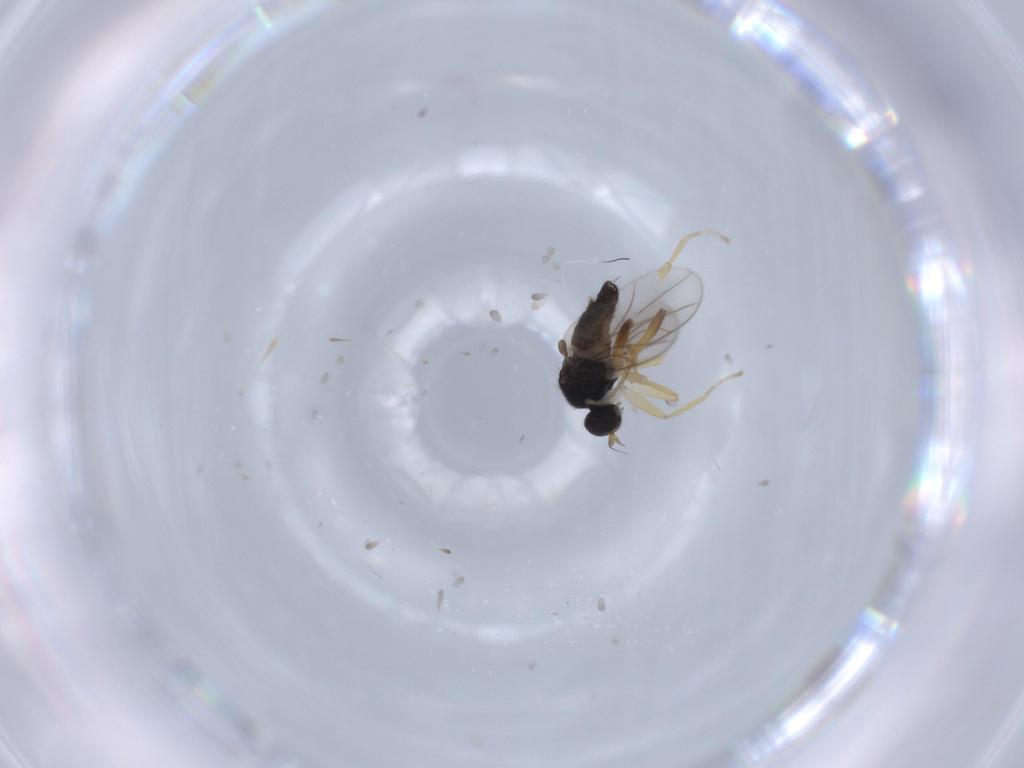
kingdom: Animalia
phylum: Arthropoda
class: Insecta
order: Diptera
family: Hybotidae
